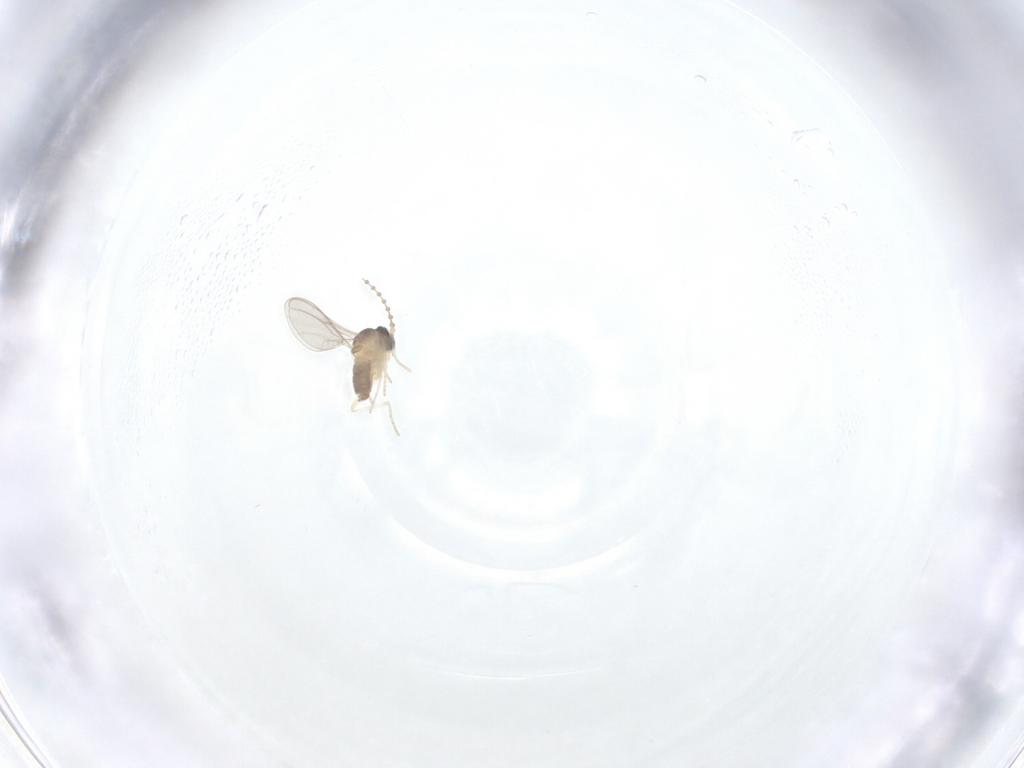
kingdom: Animalia
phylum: Arthropoda
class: Insecta
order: Diptera
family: Cecidomyiidae
